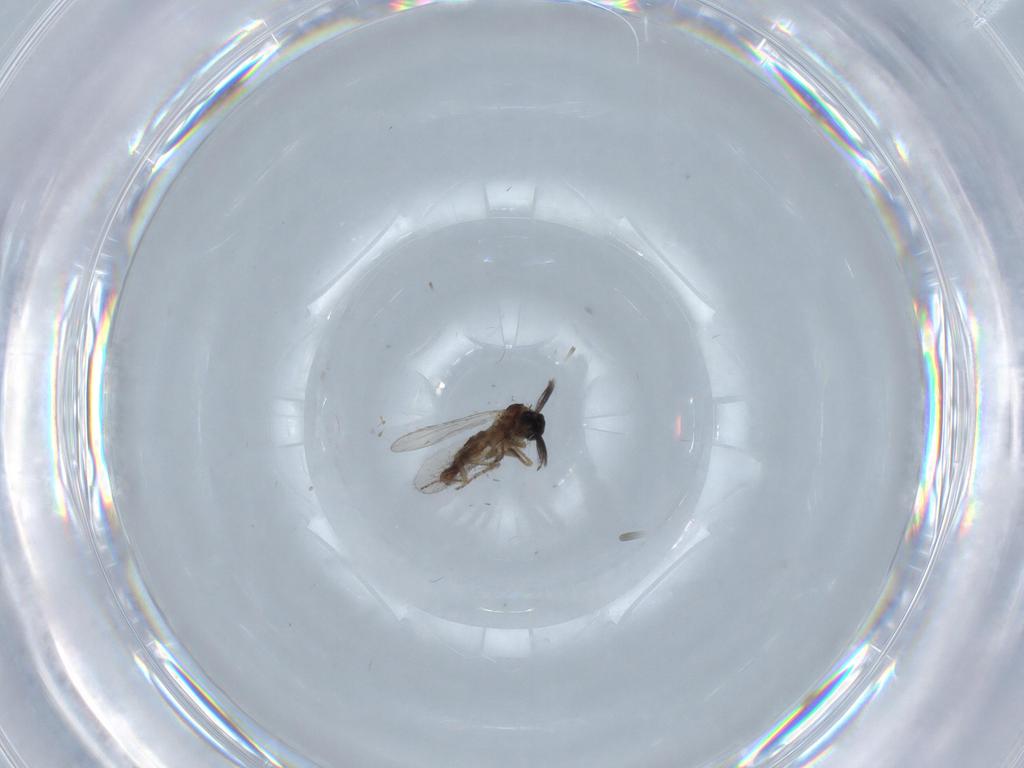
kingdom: Animalia
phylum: Arthropoda
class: Insecta
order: Diptera
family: Ceratopogonidae
